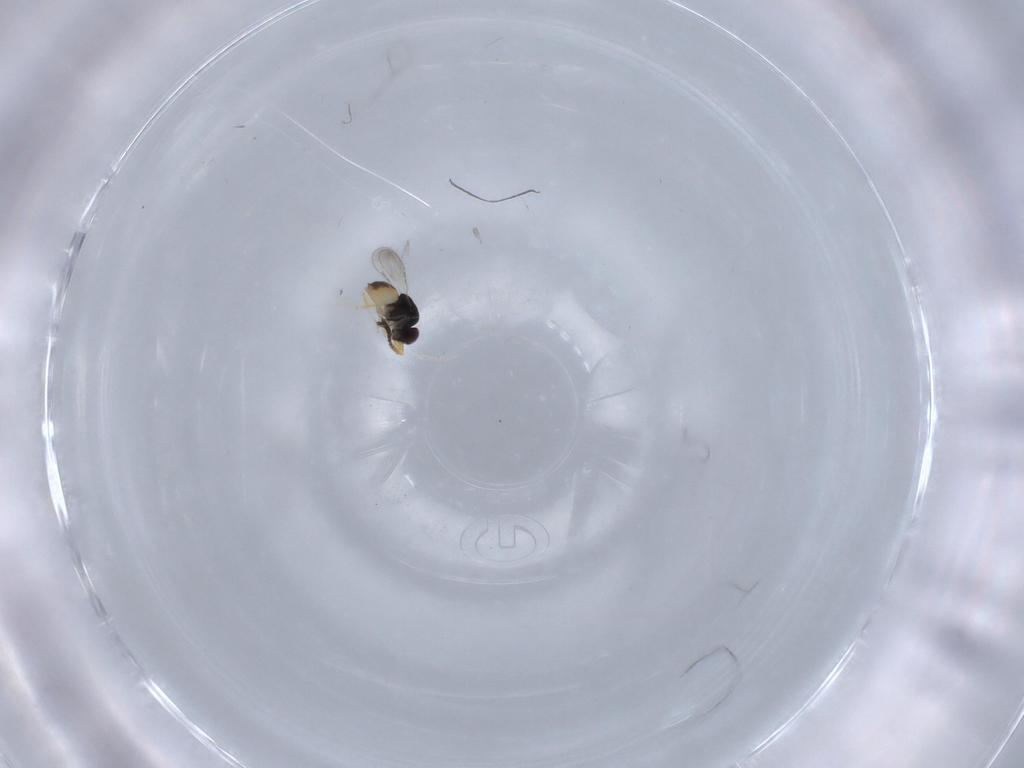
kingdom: Animalia
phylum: Arthropoda
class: Insecta
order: Hymenoptera
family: Ceraphronidae
